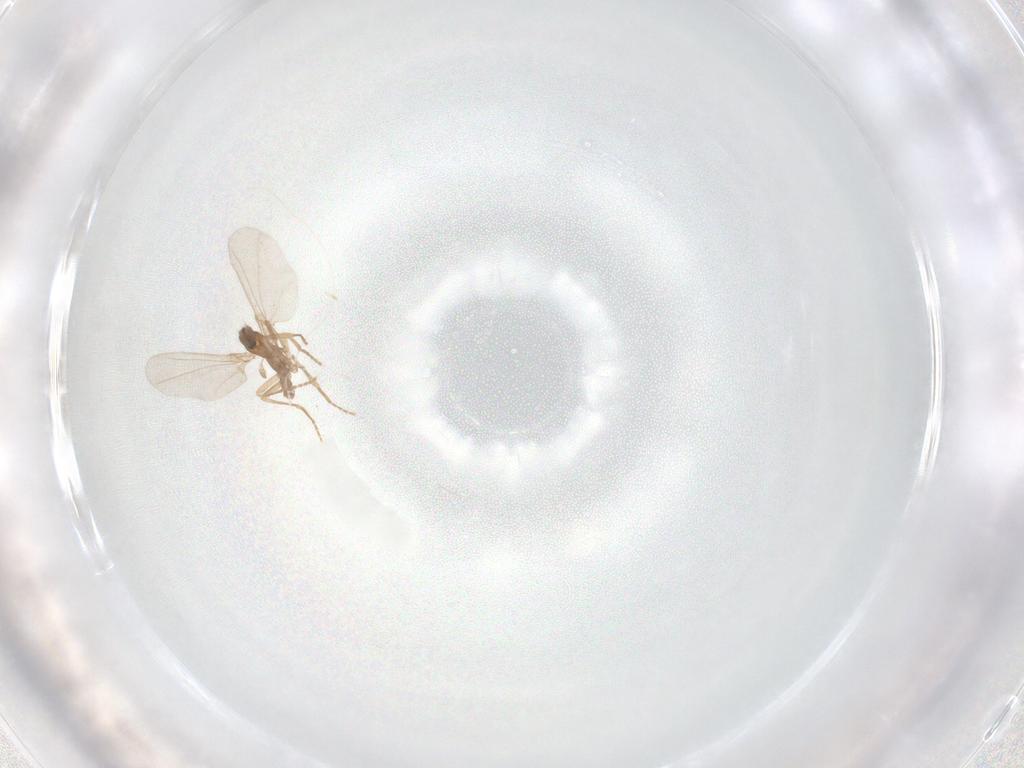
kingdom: Animalia
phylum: Arthropoda
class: Insecta
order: Diptera
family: Phoridae
